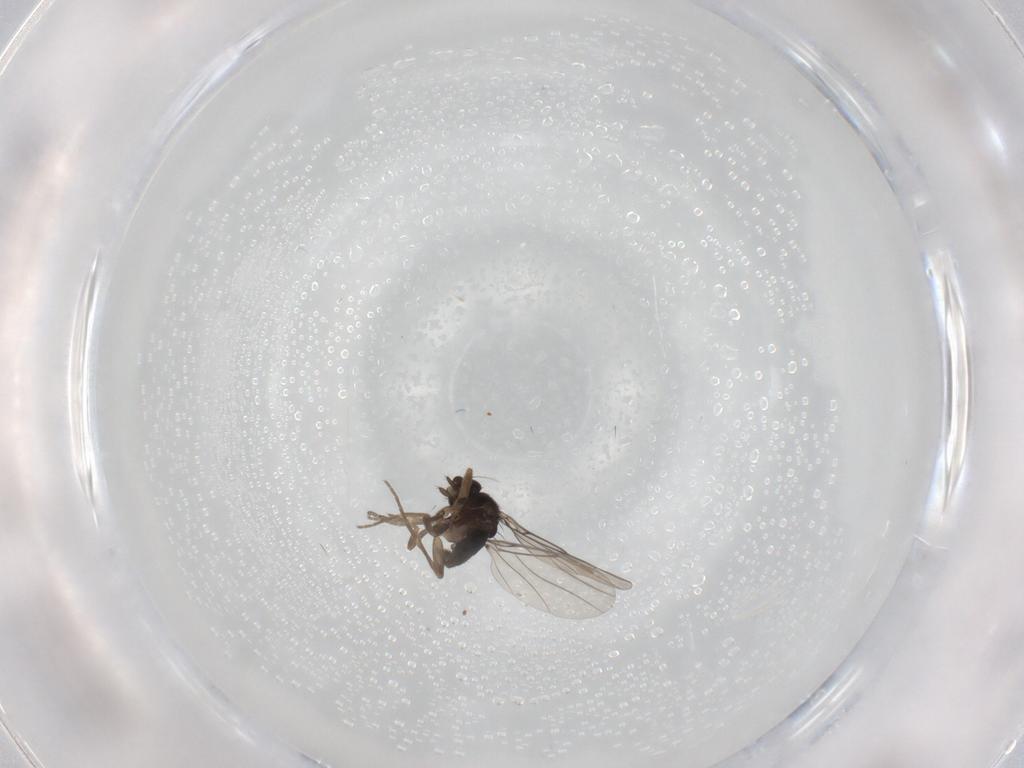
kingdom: Animalia
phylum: Arthropoda
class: Insecta
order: Diptera
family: Phoridae
